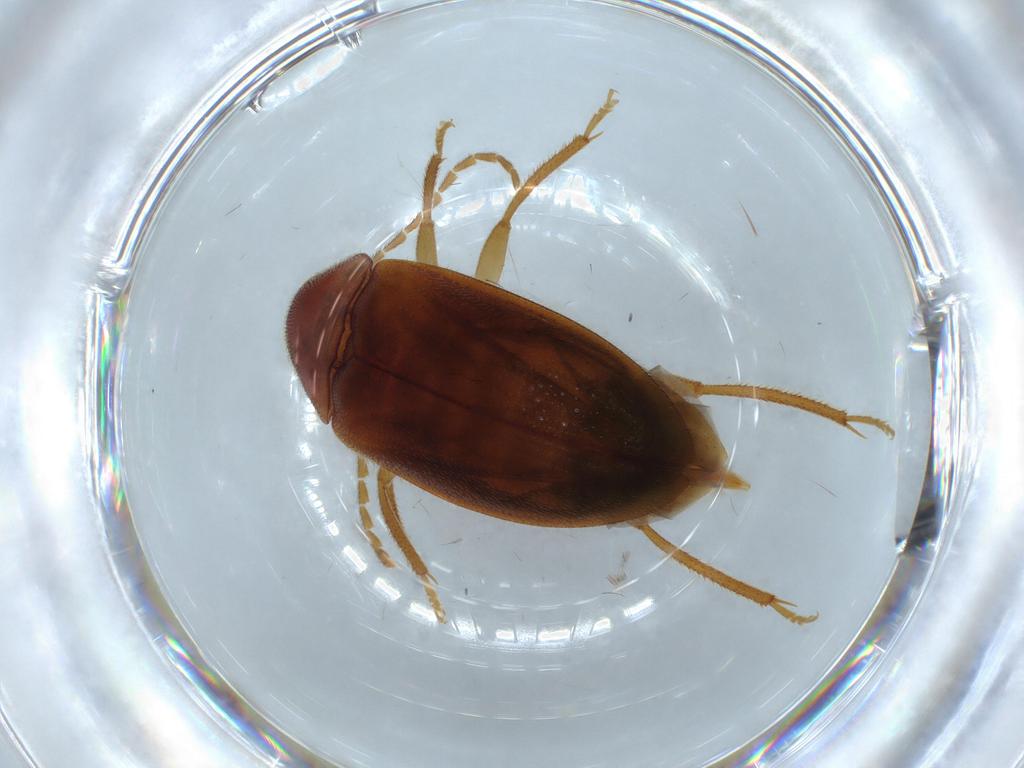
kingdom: Animalia
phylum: Arthropoda
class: Insecta
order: Coleoptera
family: Ptilodactylidae
